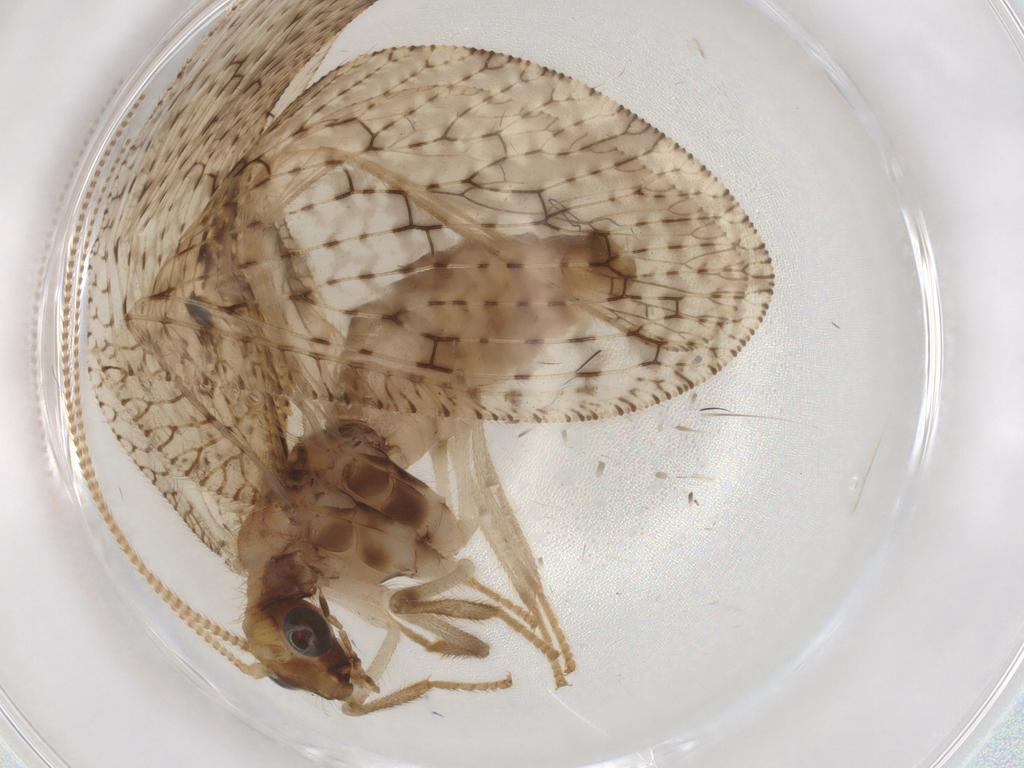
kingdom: Animalia
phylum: Arthropoda
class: Insecta
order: Neuroptera
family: Hemerobiidae
